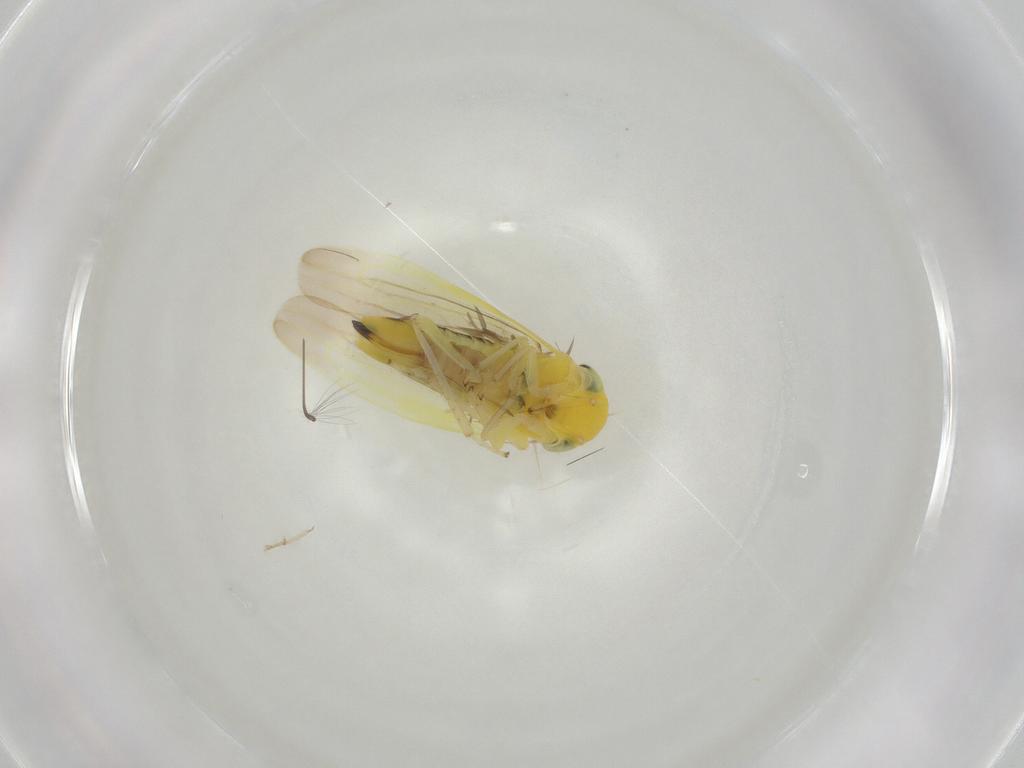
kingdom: Animalia
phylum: Arthropoda
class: Insecta
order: Hemiptera
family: Cicadellidae
